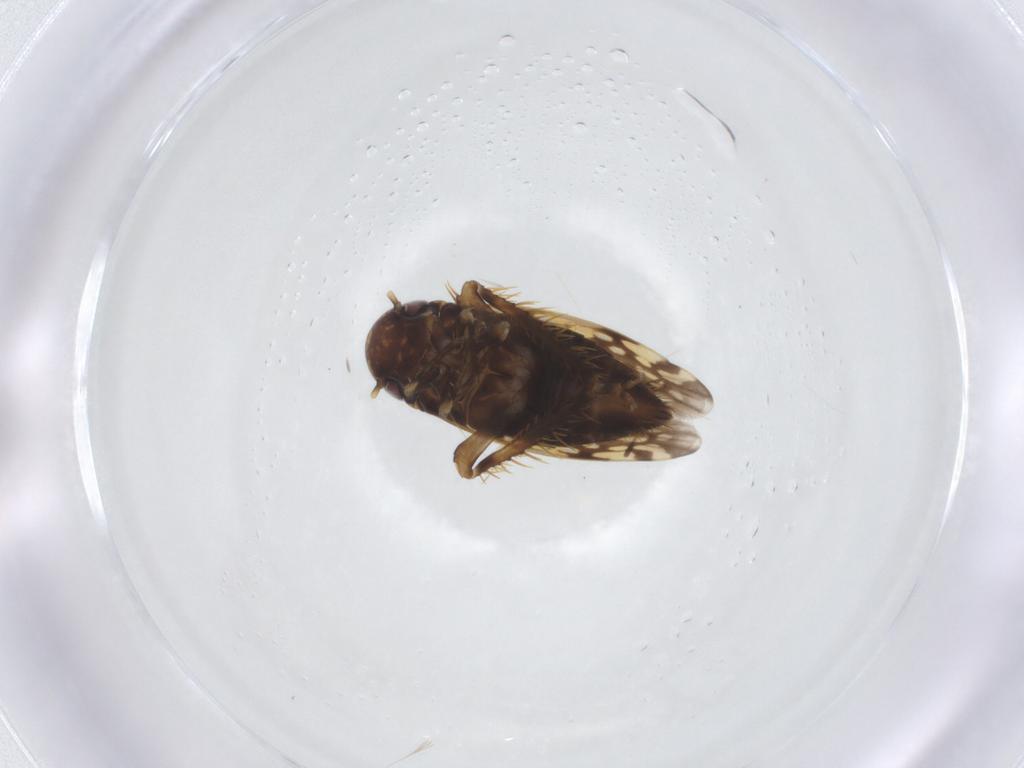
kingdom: Animalia
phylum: Arthropoda
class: Insecta
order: Hemiptera
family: Cicadellidae
